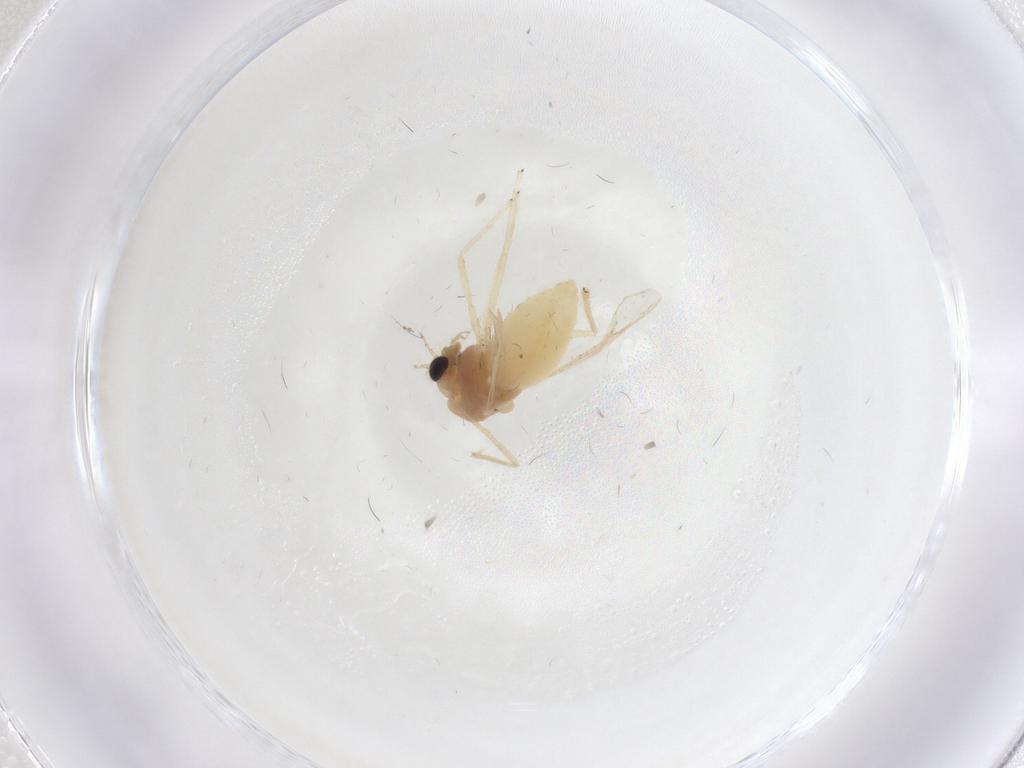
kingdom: Animalia
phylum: Arthropoda
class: Insecta
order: Diptera
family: Chironomidae
